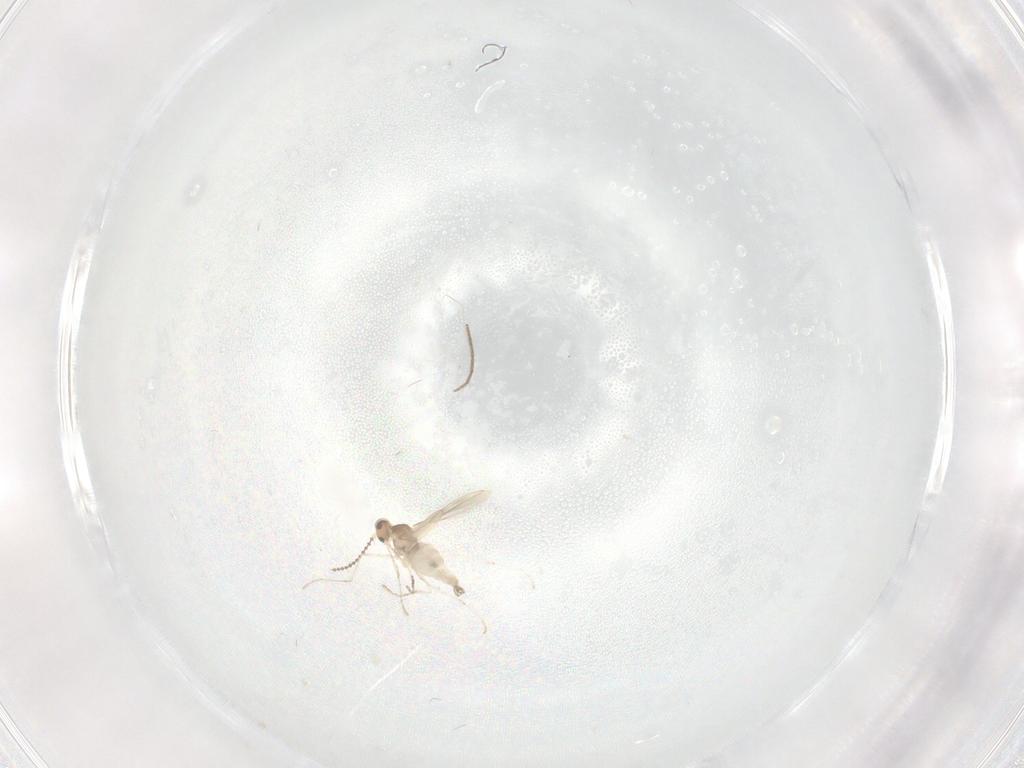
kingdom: Animalia
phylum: Arthropoda
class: Insecta
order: Diptera
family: Chironomidae
